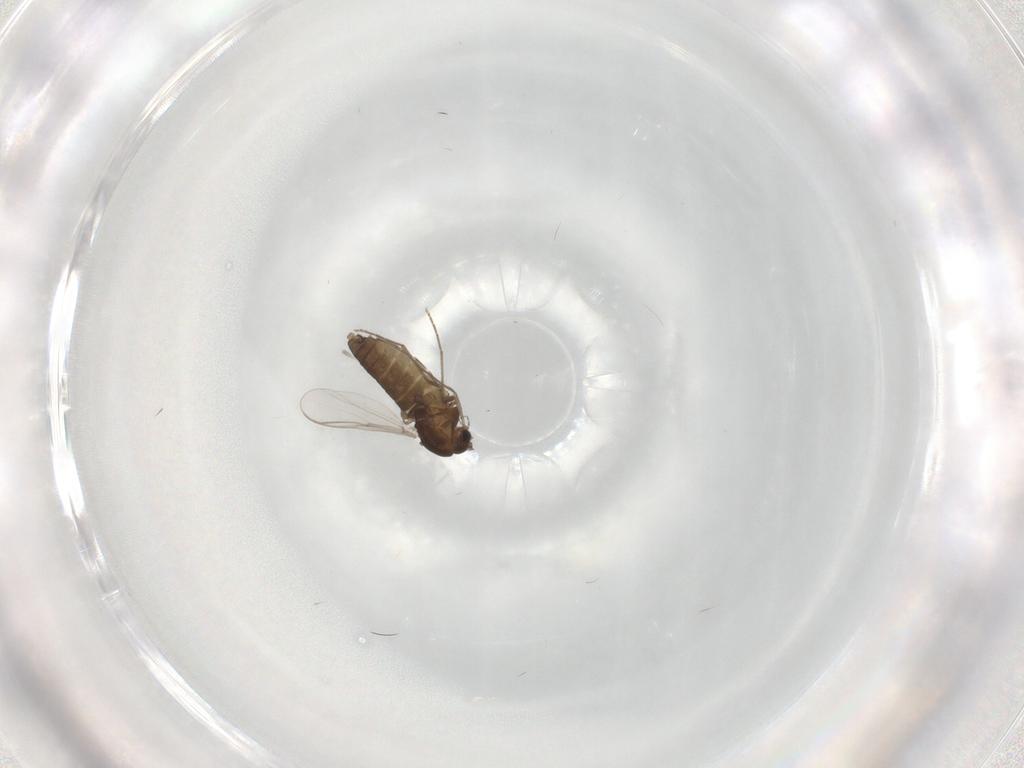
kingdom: Animalia
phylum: Arthropoda
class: Insecta
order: Diptera
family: Chironomidae
